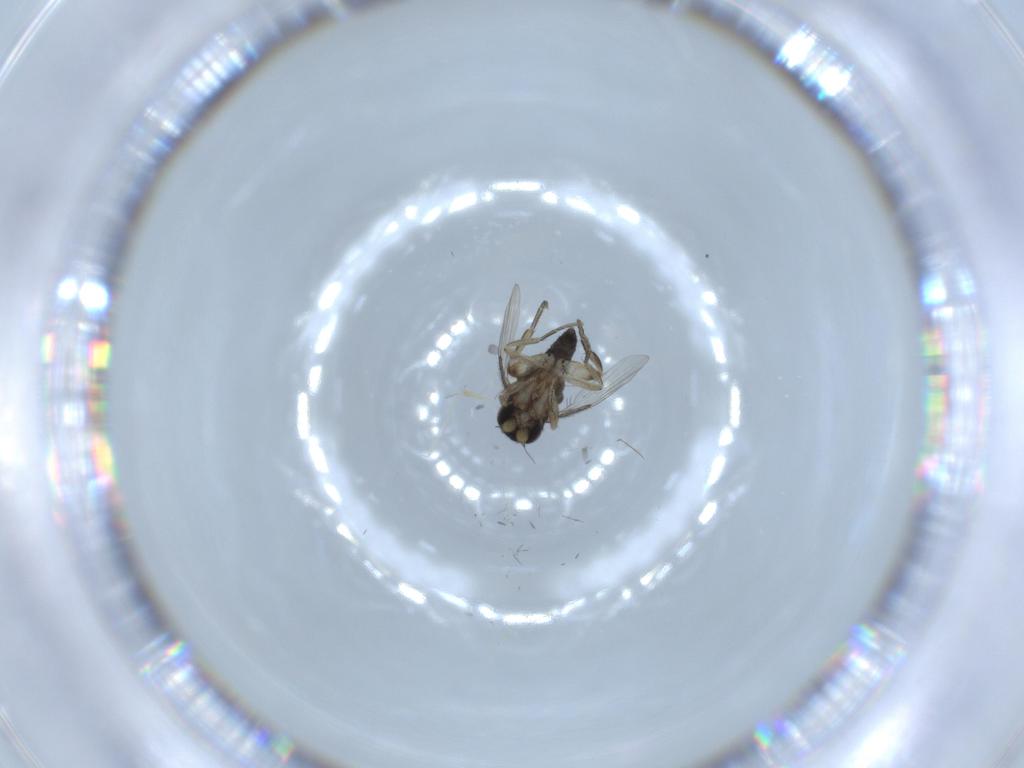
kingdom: Animalia
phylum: Arthropoda
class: Insecta
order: Diptera
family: Phoridae
